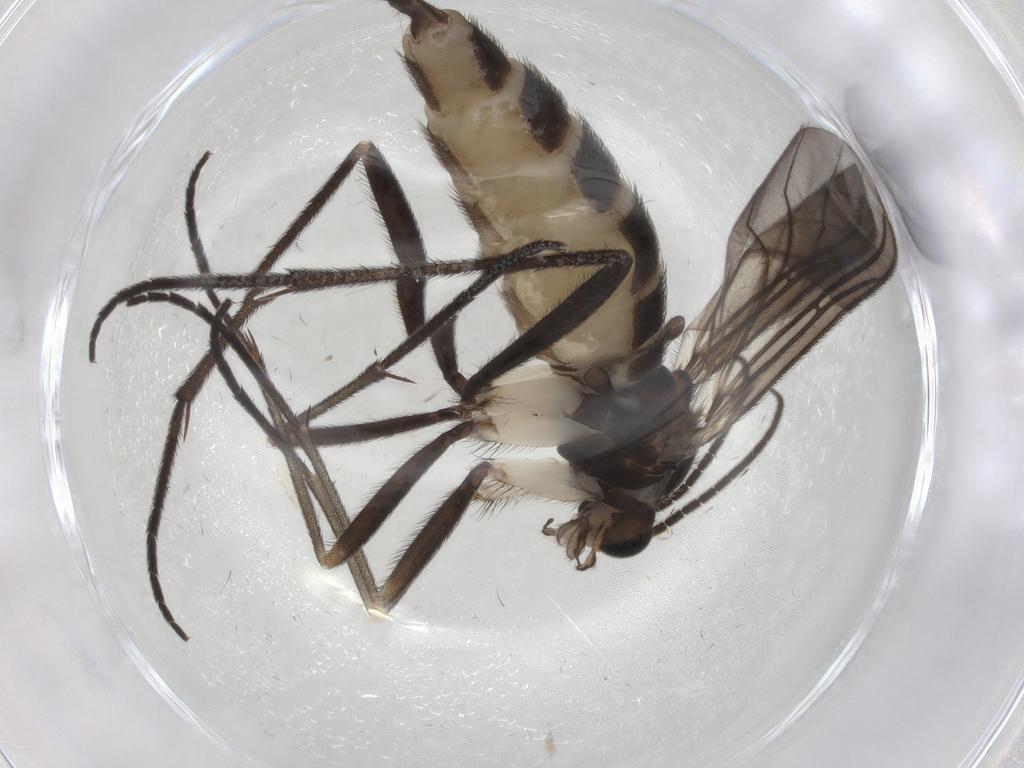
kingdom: Animalia
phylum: Arthropoda
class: Insecta
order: Diptera
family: Sciaridae
